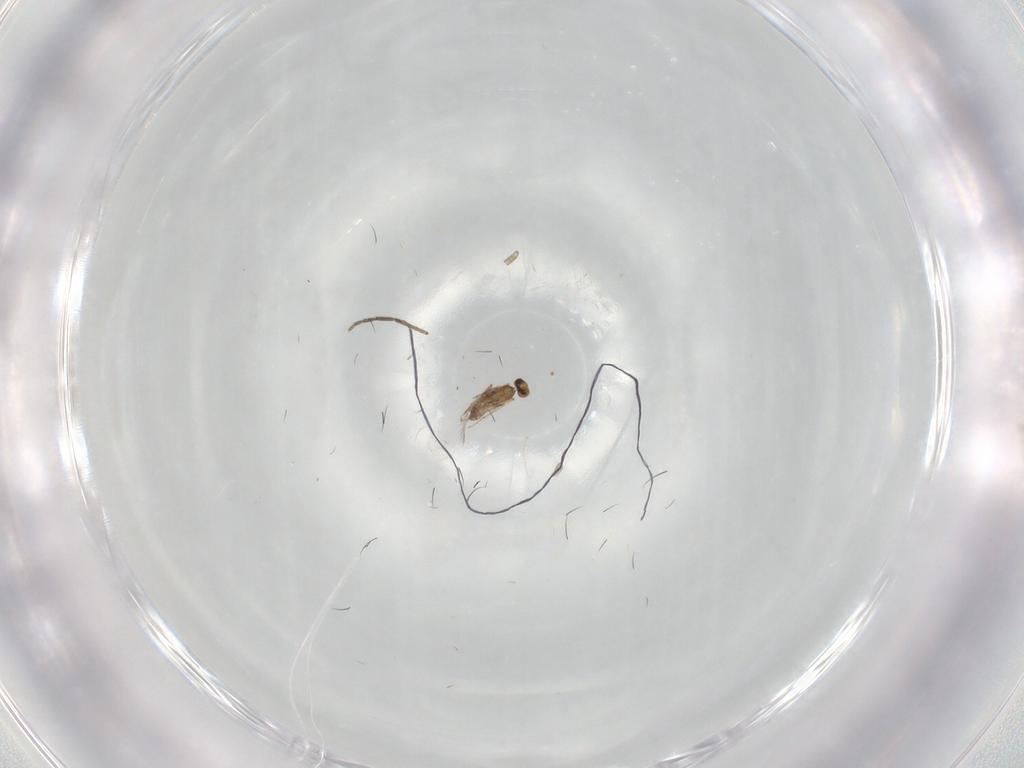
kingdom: Animalia
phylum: Arthropoda
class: Insecta
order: Hymenoptera
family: Mymaridae
